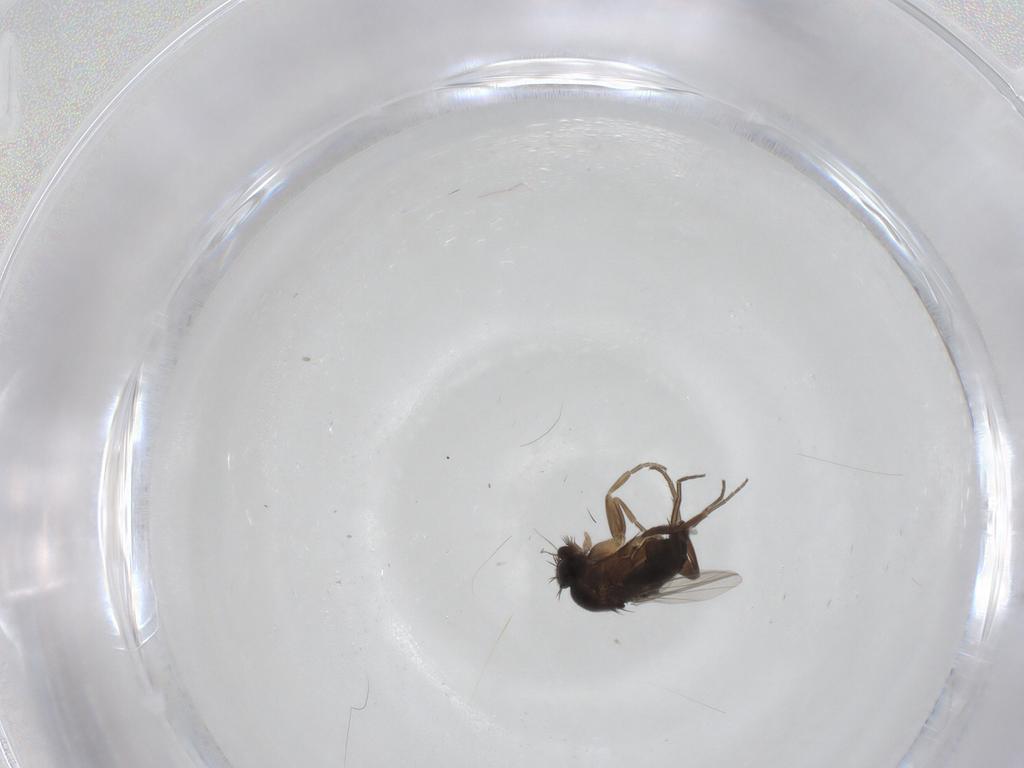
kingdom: Animalia
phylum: Arthropoda
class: Insecta
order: Diptera
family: Phoridae
